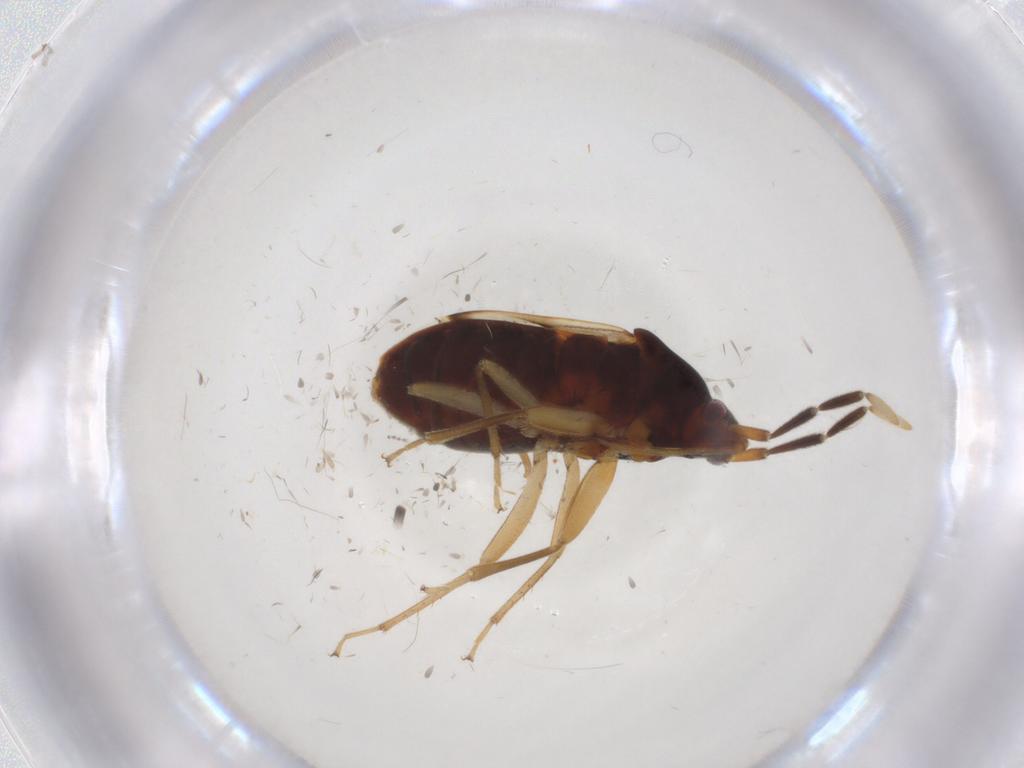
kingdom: Animalia
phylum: Arthropoda
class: Insecta
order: Hemiptera
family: Rhyparochromidae
